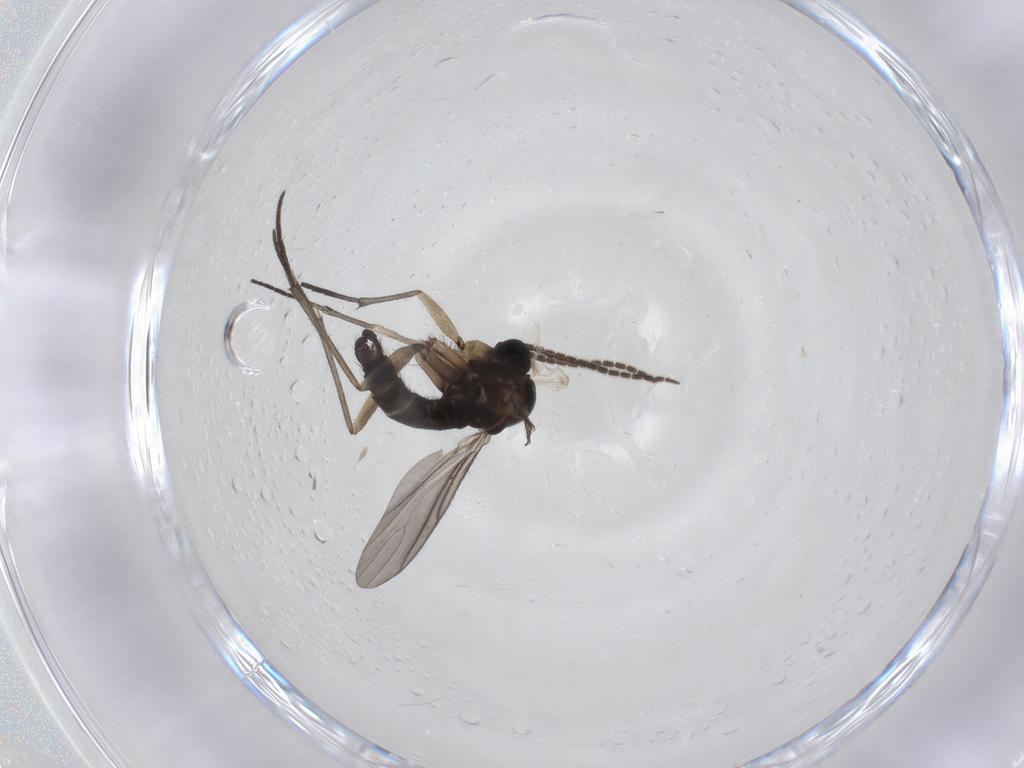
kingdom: Animalia
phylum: Arthropoda
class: Insecta
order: Diptera
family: Sciaridae
